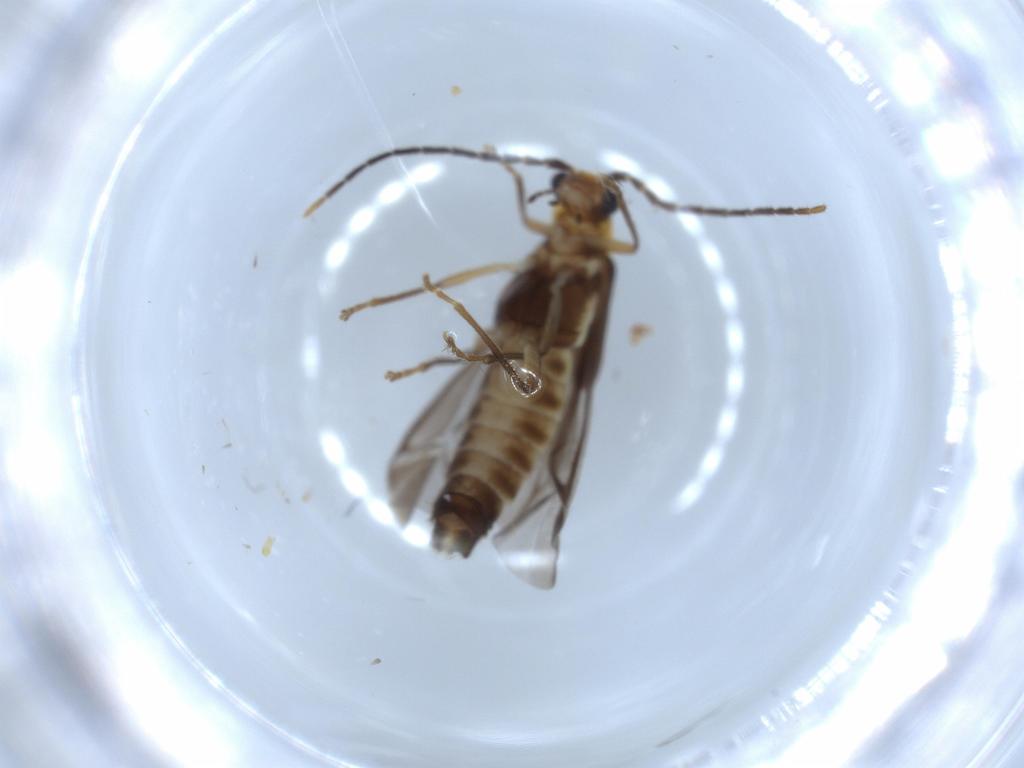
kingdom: Animalia
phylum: Arthropoda
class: Insecta
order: Coleoptera
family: Cantharidae
